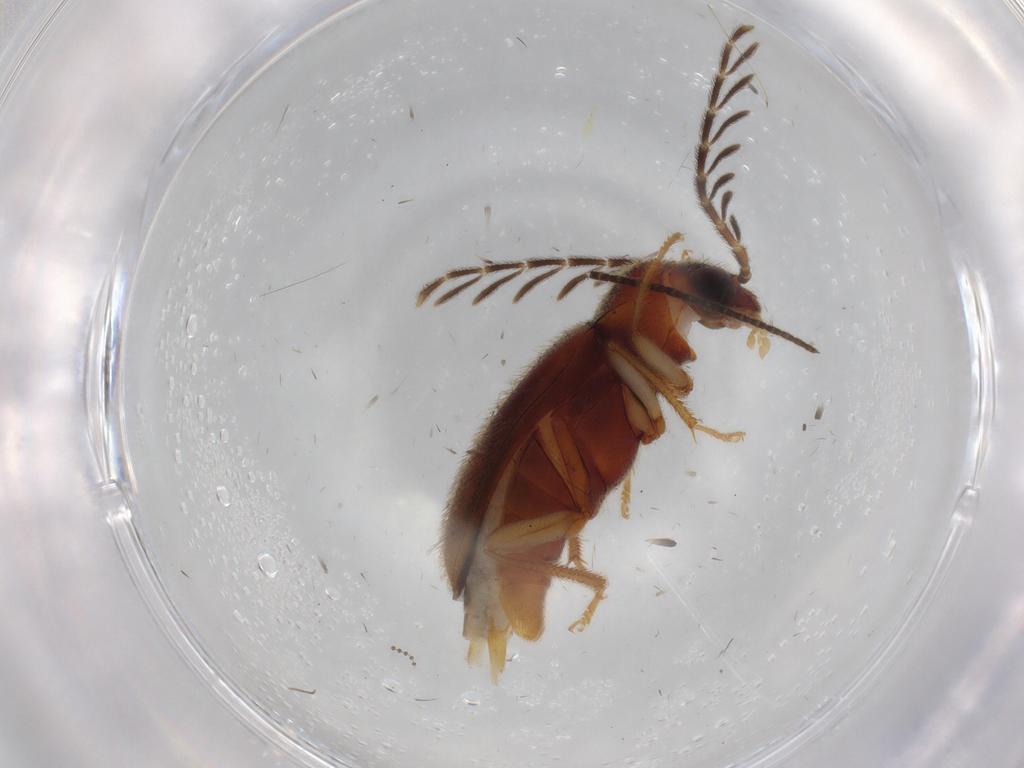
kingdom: Animalia
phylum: Arthropoda
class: Insecta
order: Coleoptera
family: Ptilodactylidae
